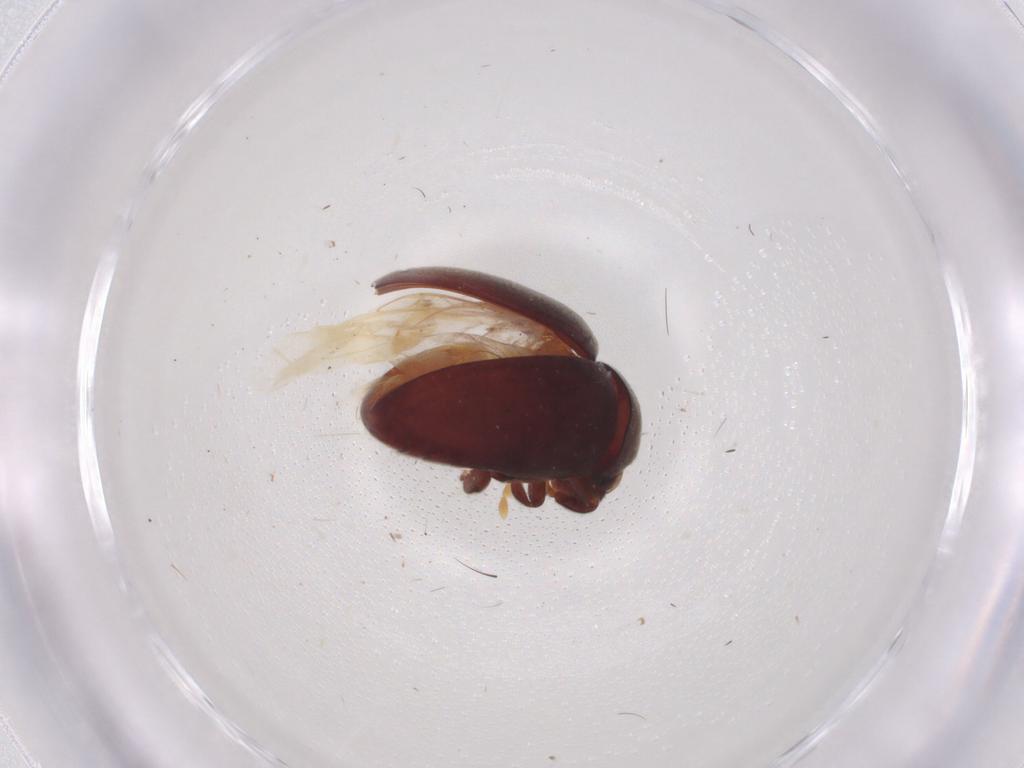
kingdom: Animalia
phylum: Arthropoda
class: Insecta
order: Coleoptera
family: Ptinidae
